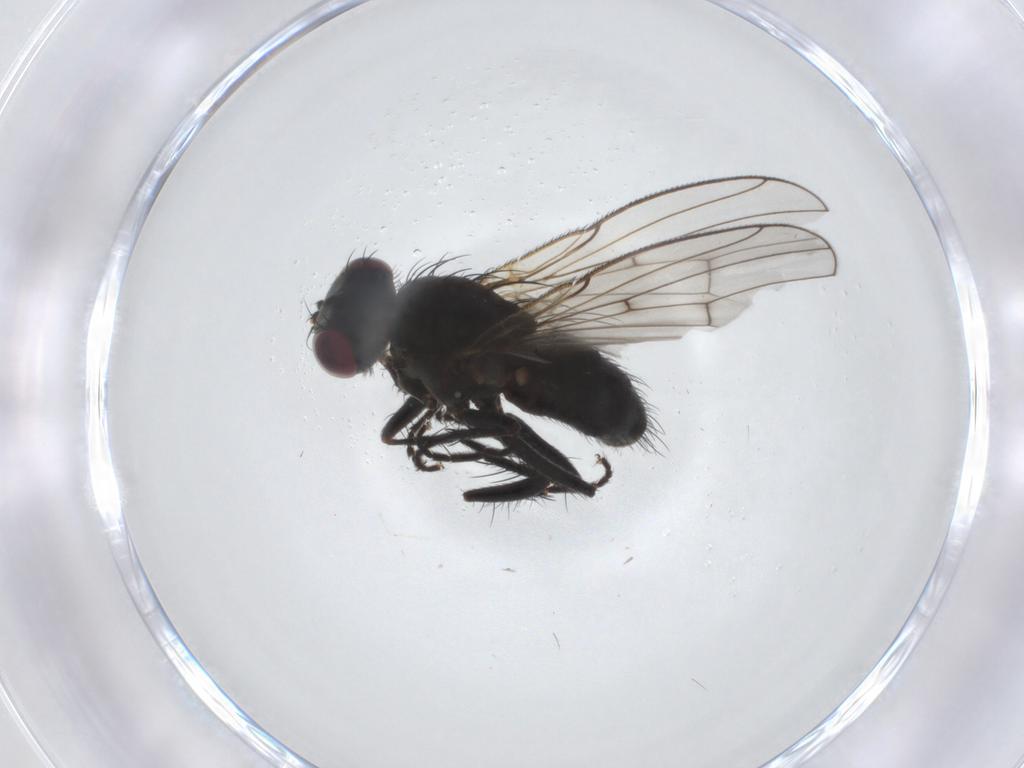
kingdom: Animalia
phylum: Arthropoda
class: Insecta
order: Diptera
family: Muscidae
